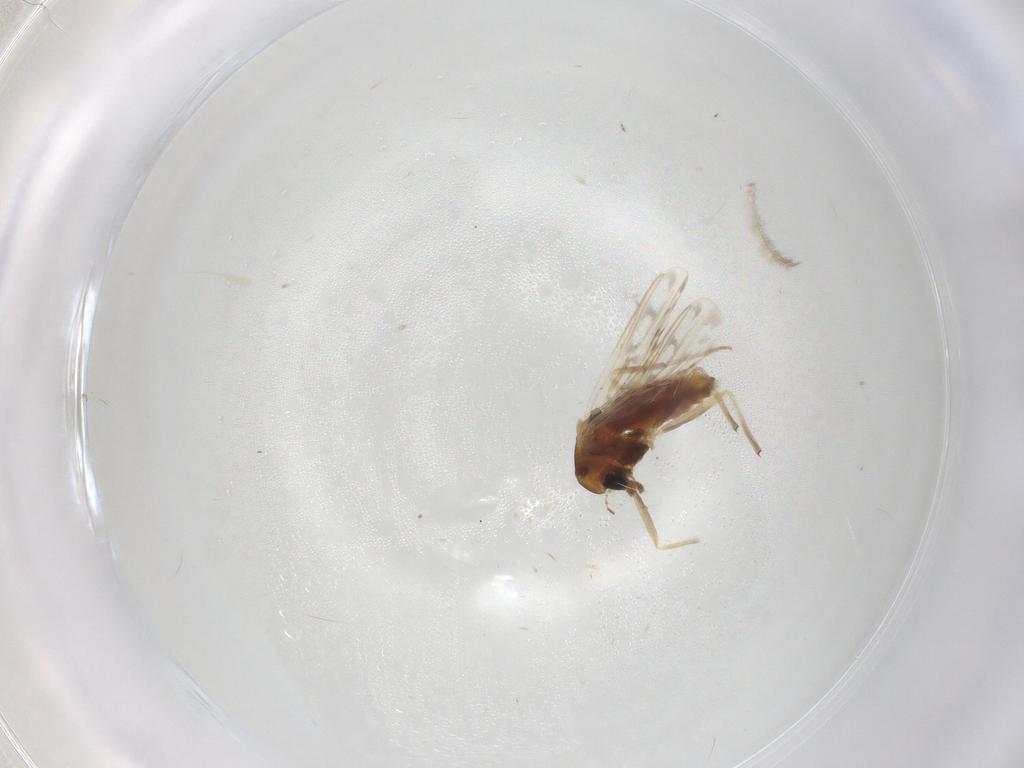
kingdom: Animalia
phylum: Arthropoda
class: Insecta
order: Diptera
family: Chironomidae
